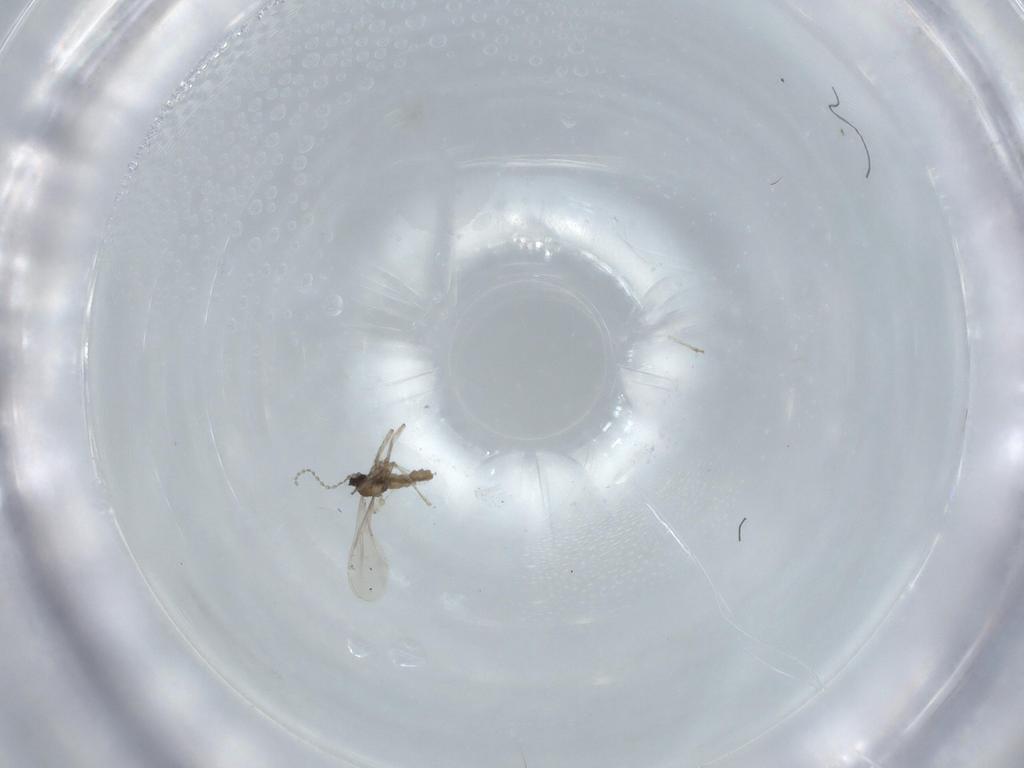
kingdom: Animalia
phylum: Arthropoda
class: Insecta
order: Diptera
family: Cecidomyiidae
